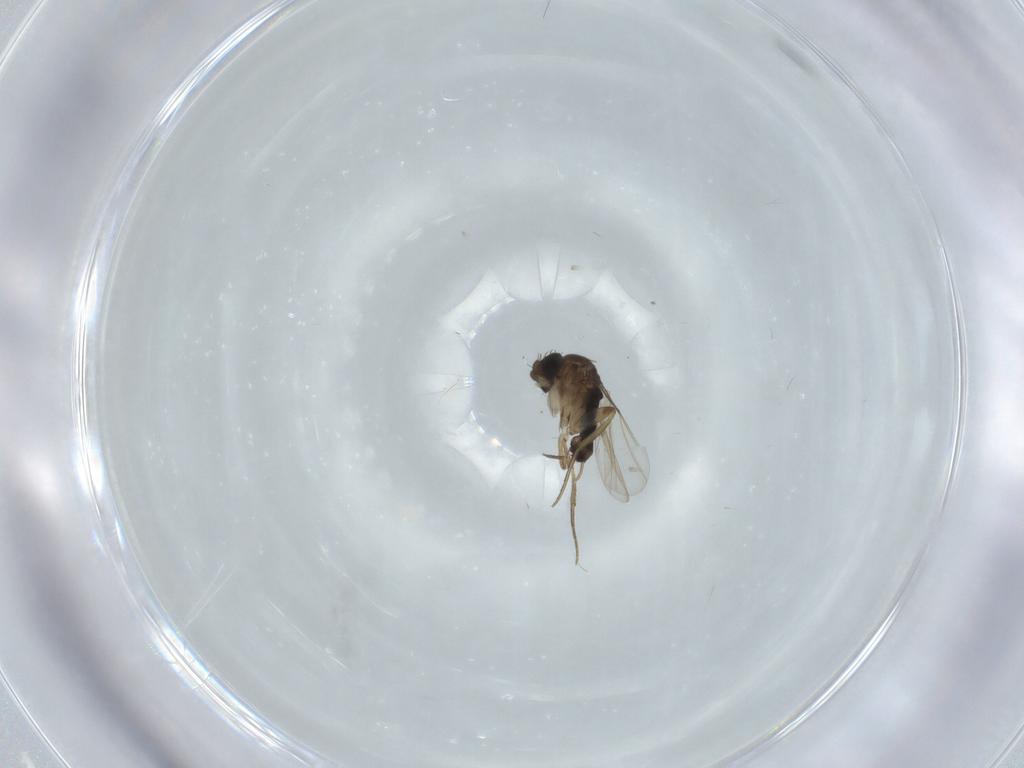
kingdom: Animalia
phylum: Arthropoda
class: Insecta
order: Diptera
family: Phoridae
